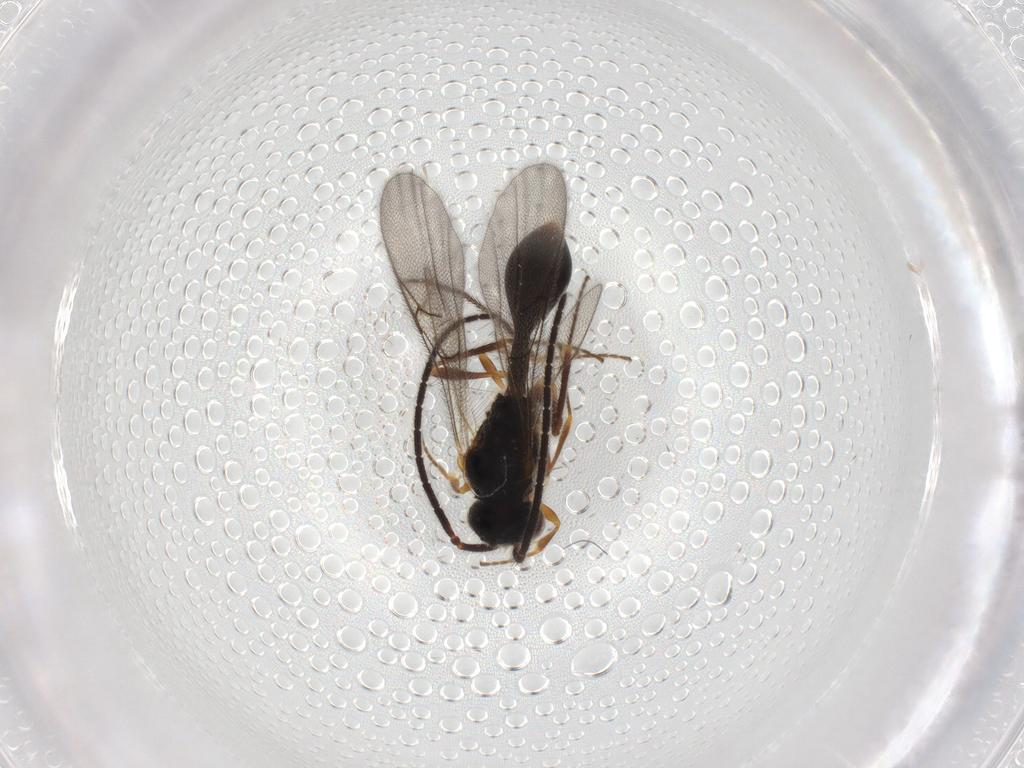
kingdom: Animalia
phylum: Arthropoda
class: Insecta
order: Hymenoptera
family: Diapriidae
